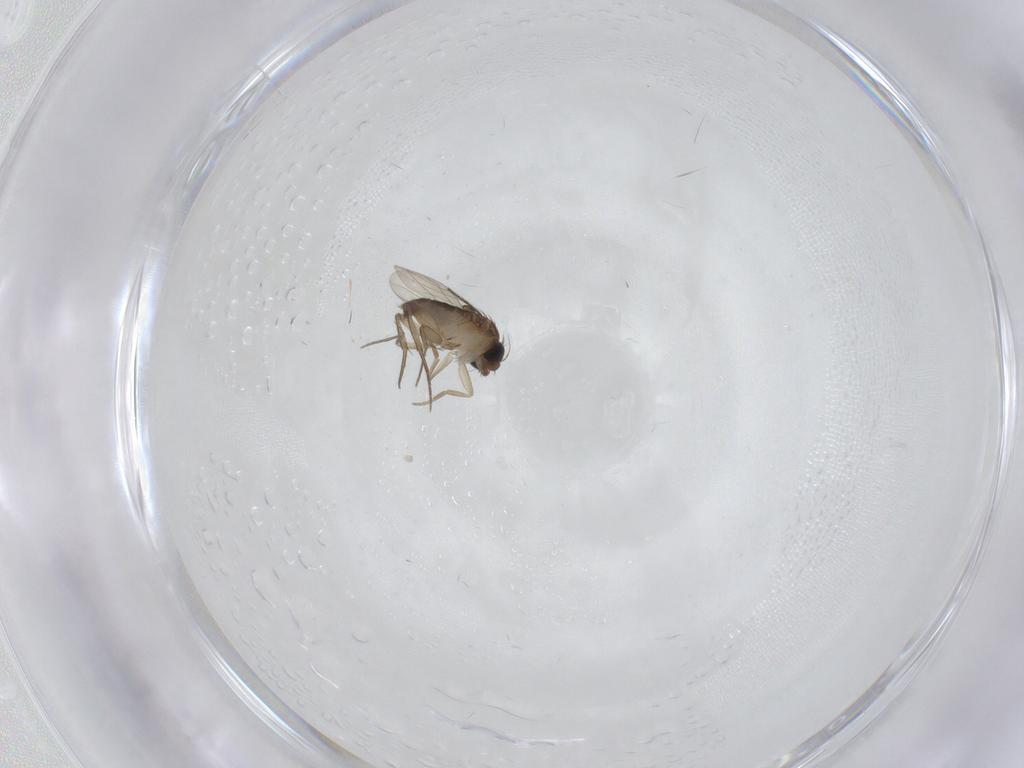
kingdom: Animalia
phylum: Arthropoda
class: Insecta
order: Diptera
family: Phoridae
